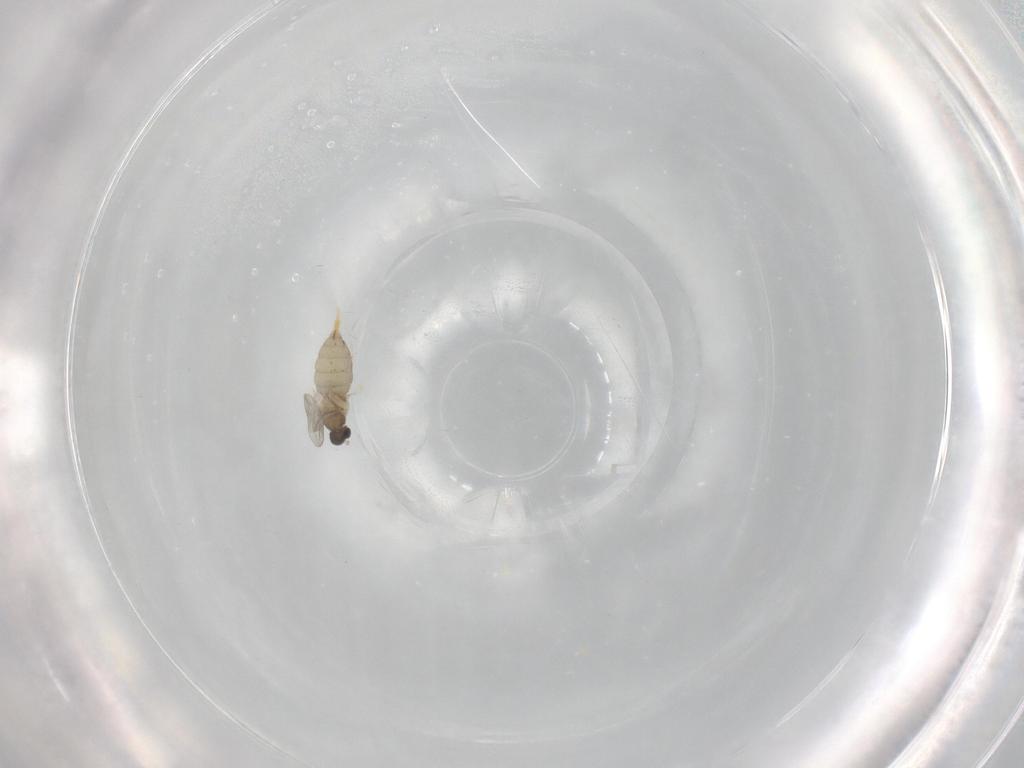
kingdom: Animalia
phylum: Arthropoda
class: Insecta
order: Diptera
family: Cecidomyiidae
